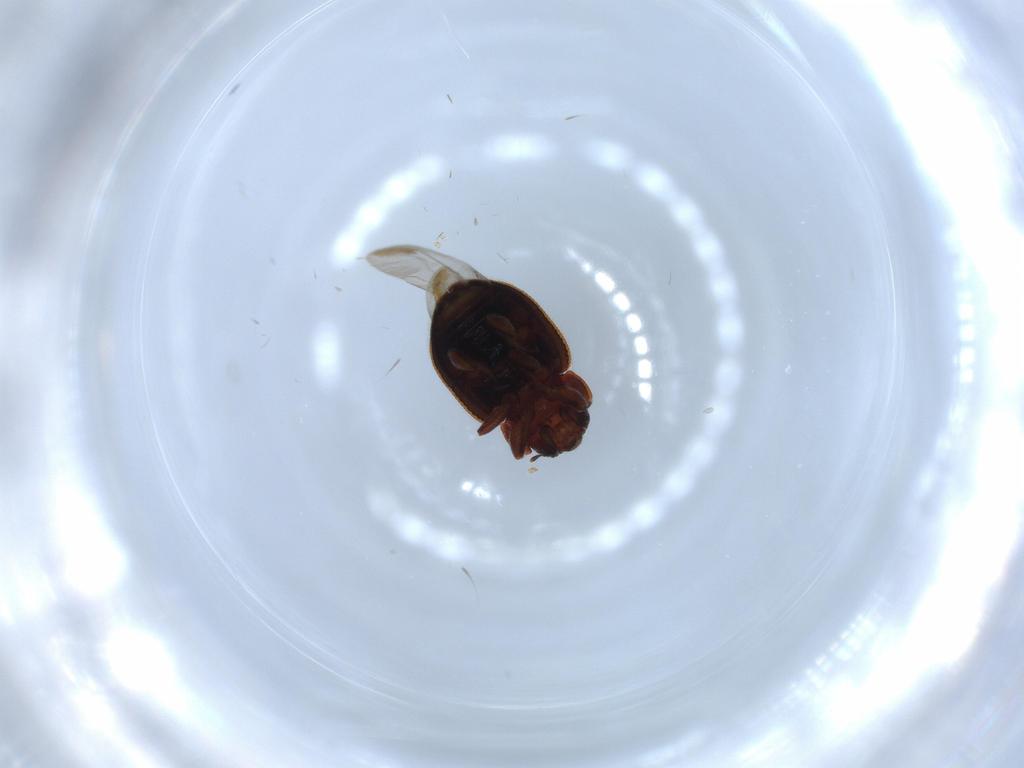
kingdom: Animalia
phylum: Arthropoda
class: Insecta
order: Coleoptera
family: Coccinellidae
